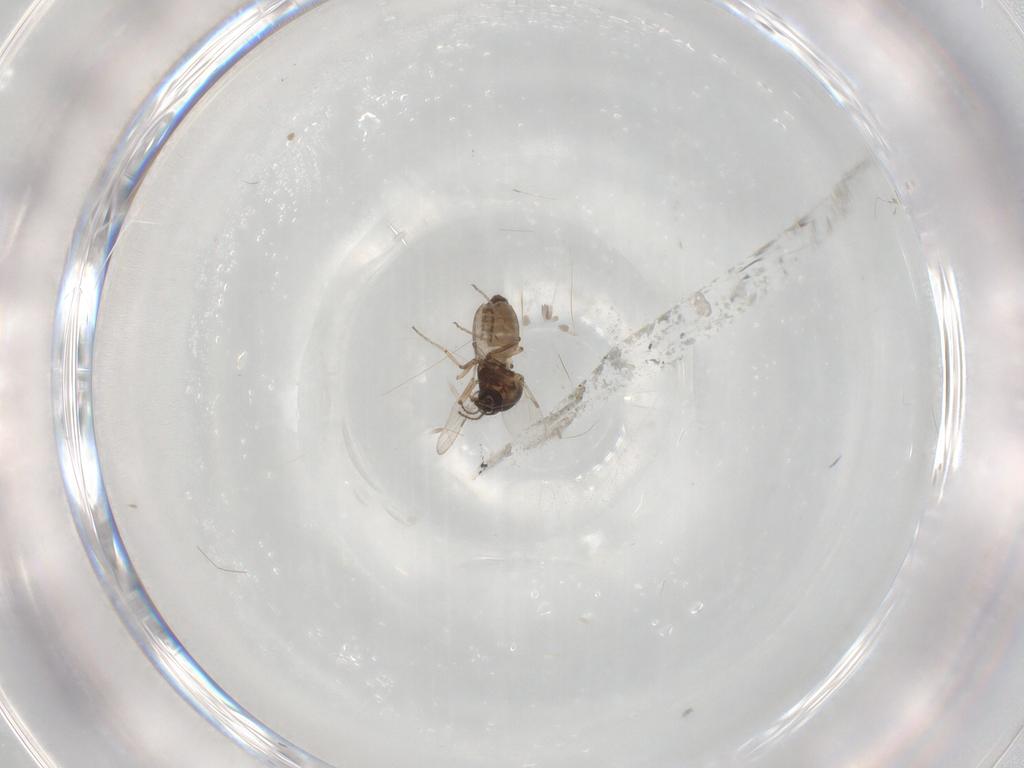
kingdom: Animalia
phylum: Arthropoda
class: Insecta
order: Diptera
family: Ceratopogonidae
